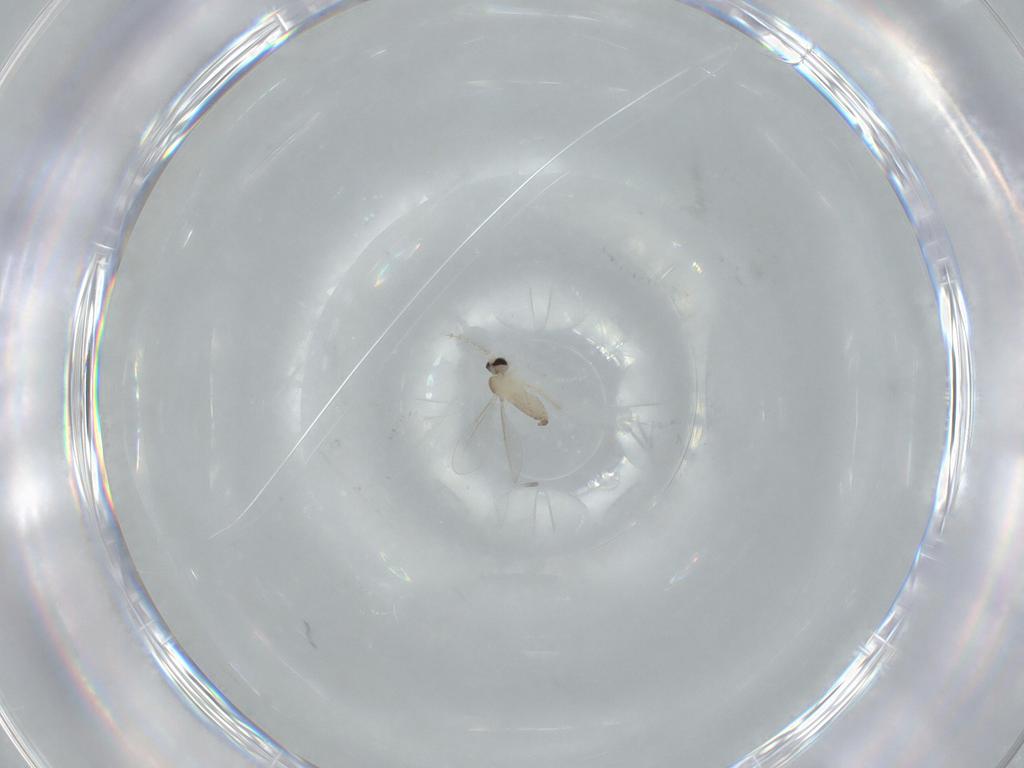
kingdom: Animalia
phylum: Arthropoda
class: Insecta
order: Diptera
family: Cecidomyiidae
